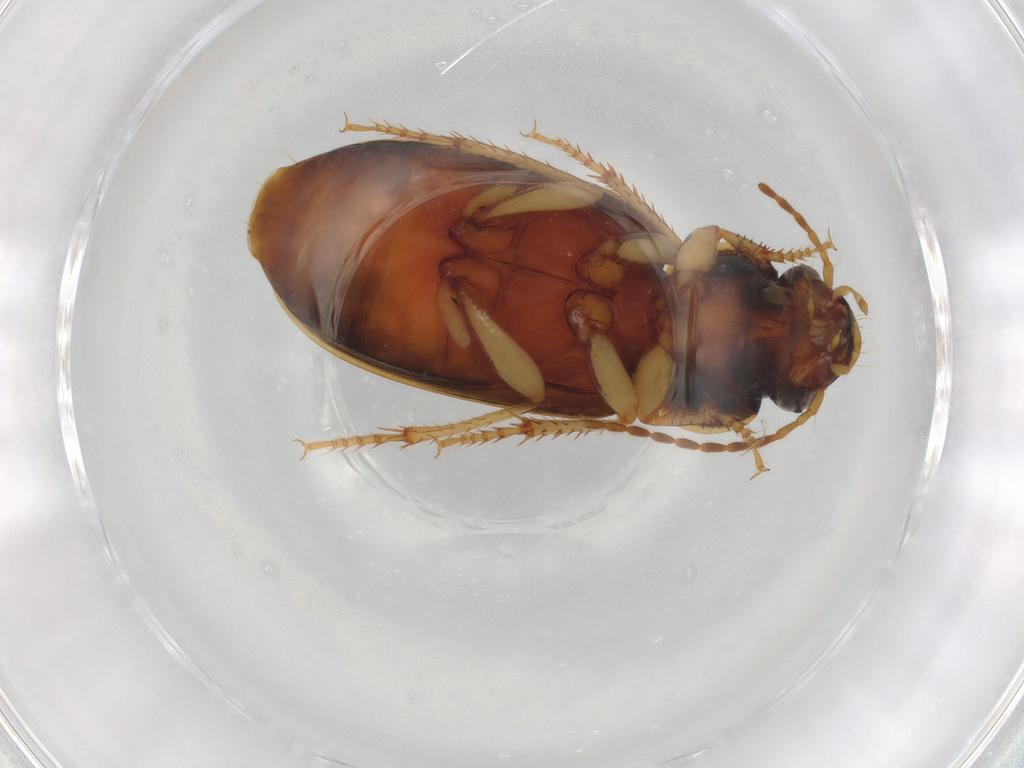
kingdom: Animalia
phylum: Arthropoda
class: Insecta
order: Coleoptera
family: Carabidae
